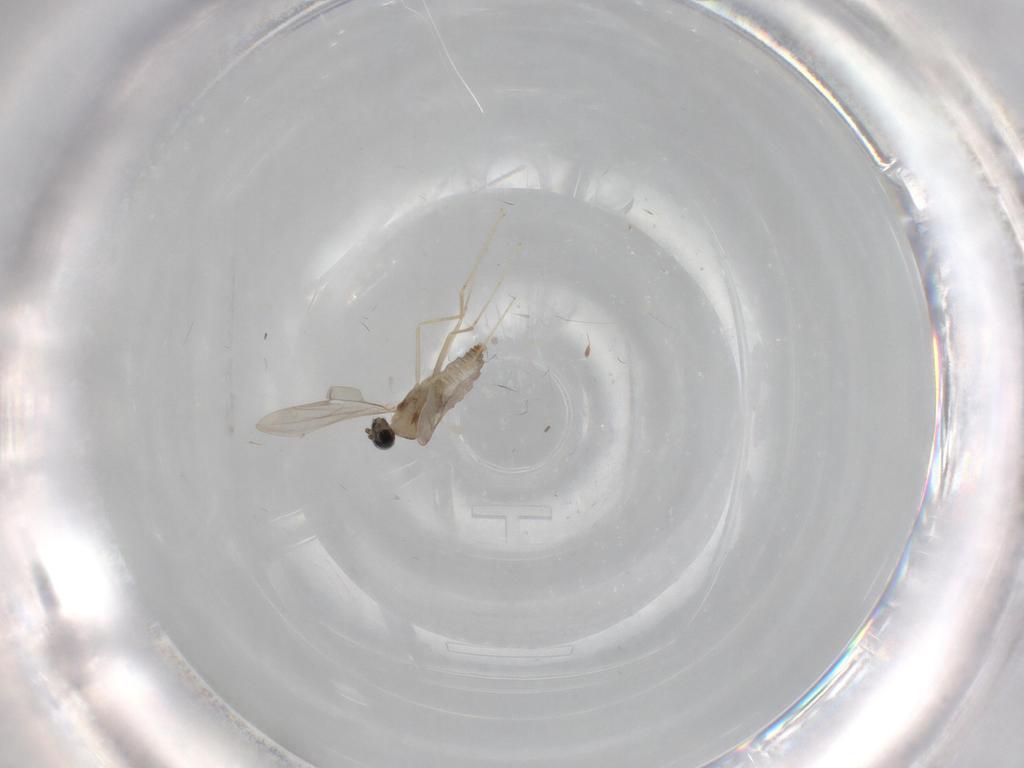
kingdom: Animalia
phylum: Arthropoda
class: Insecta
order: Diptera
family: Cecidomyiidae
